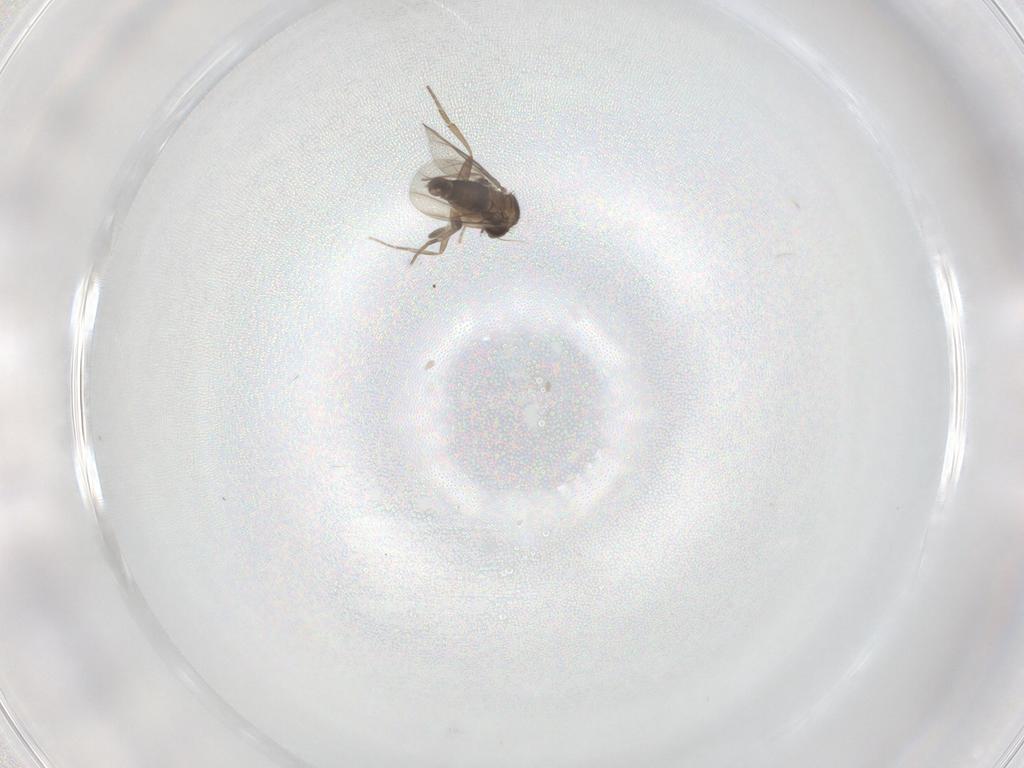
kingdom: Animalia
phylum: Arthropoda
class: Insecta
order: Diptera
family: Phoridae
